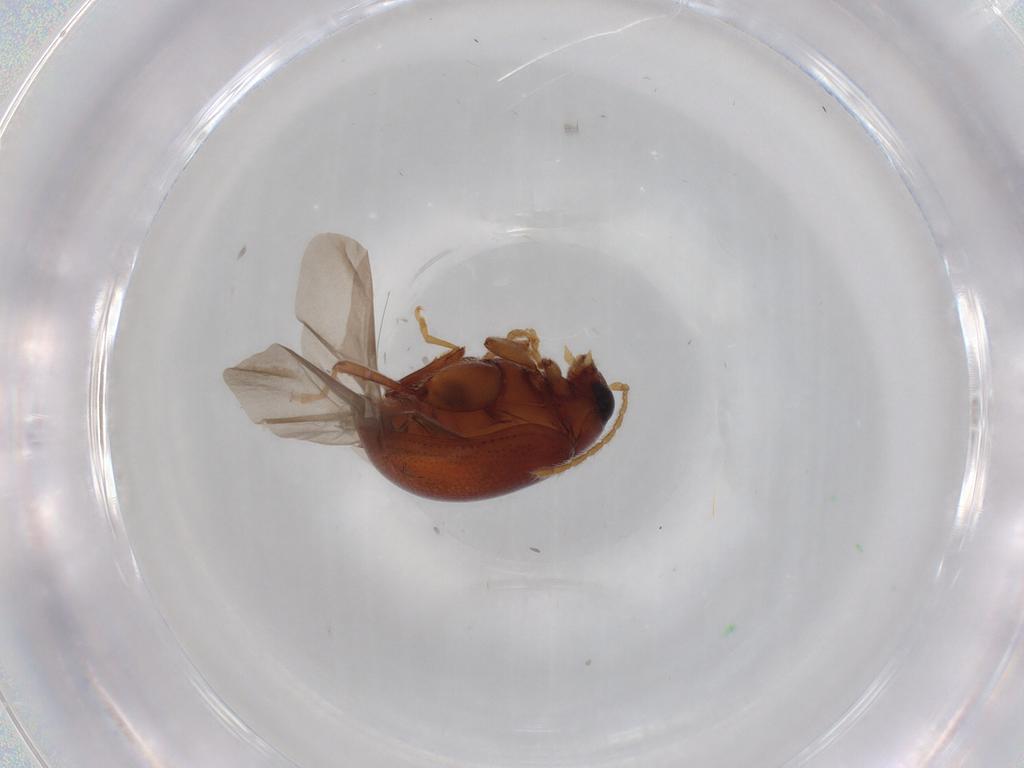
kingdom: Animalia
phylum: Arthropoda
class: Insecta
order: Coleoptera
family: Chrysomelidae
